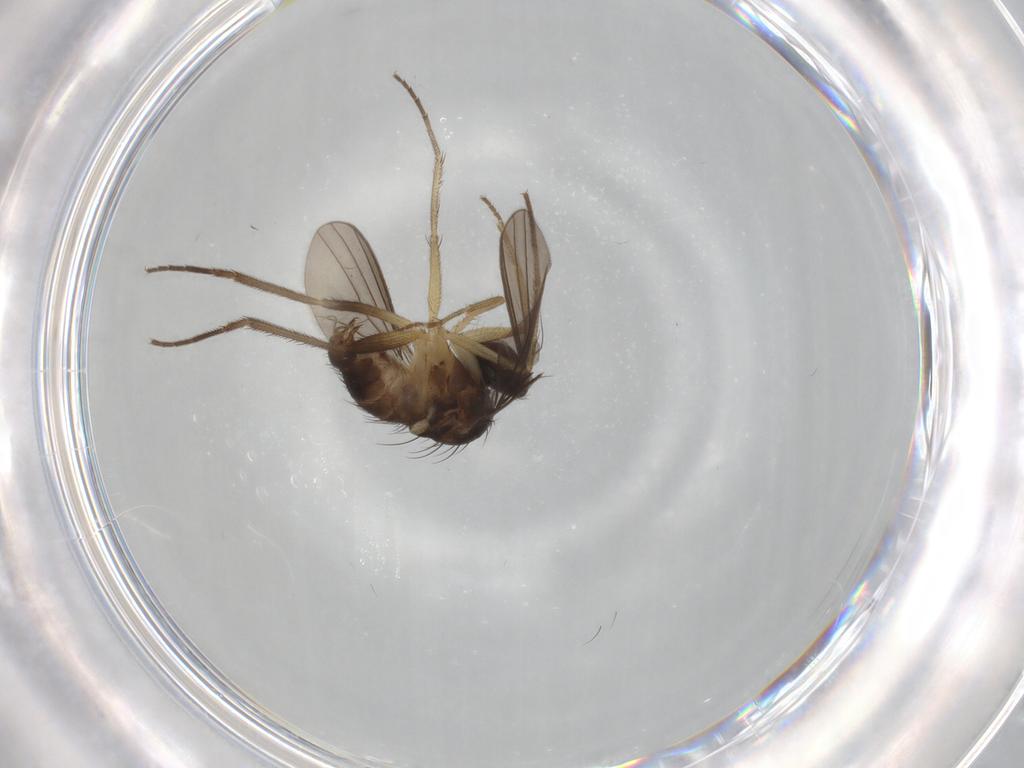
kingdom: Animalia
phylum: Arthropoda
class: Insecta
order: Diptera
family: Dolichopodidae
